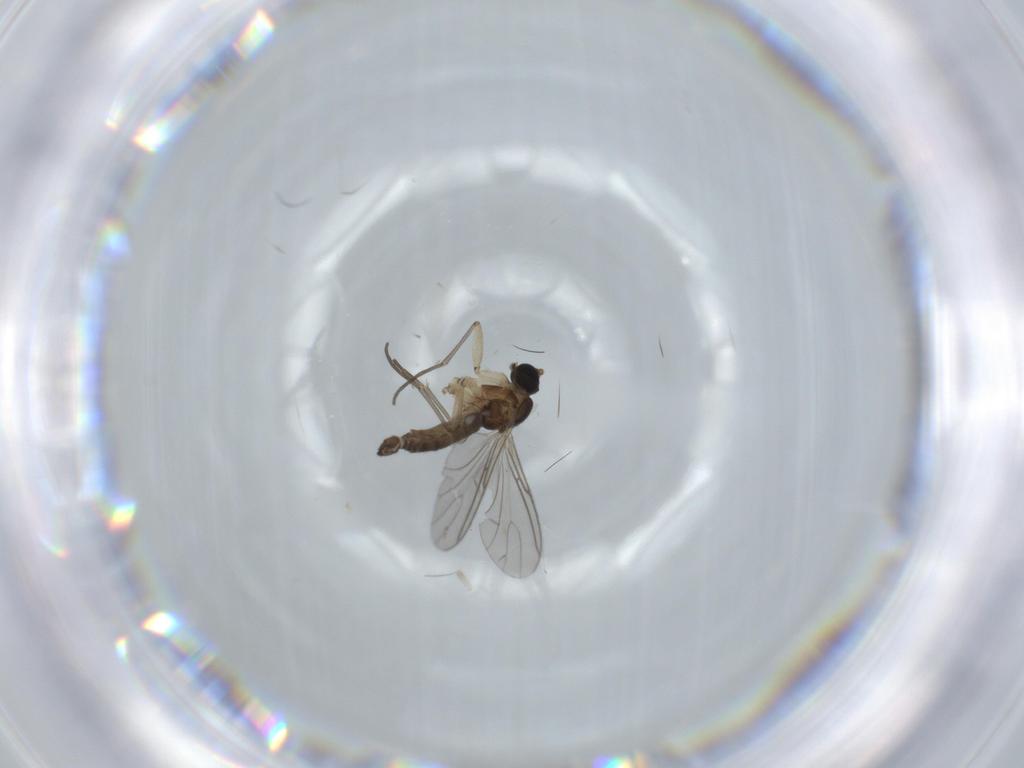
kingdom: Animalia
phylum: Arthropoda
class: Insecta
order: Diptera
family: Sciaridae
